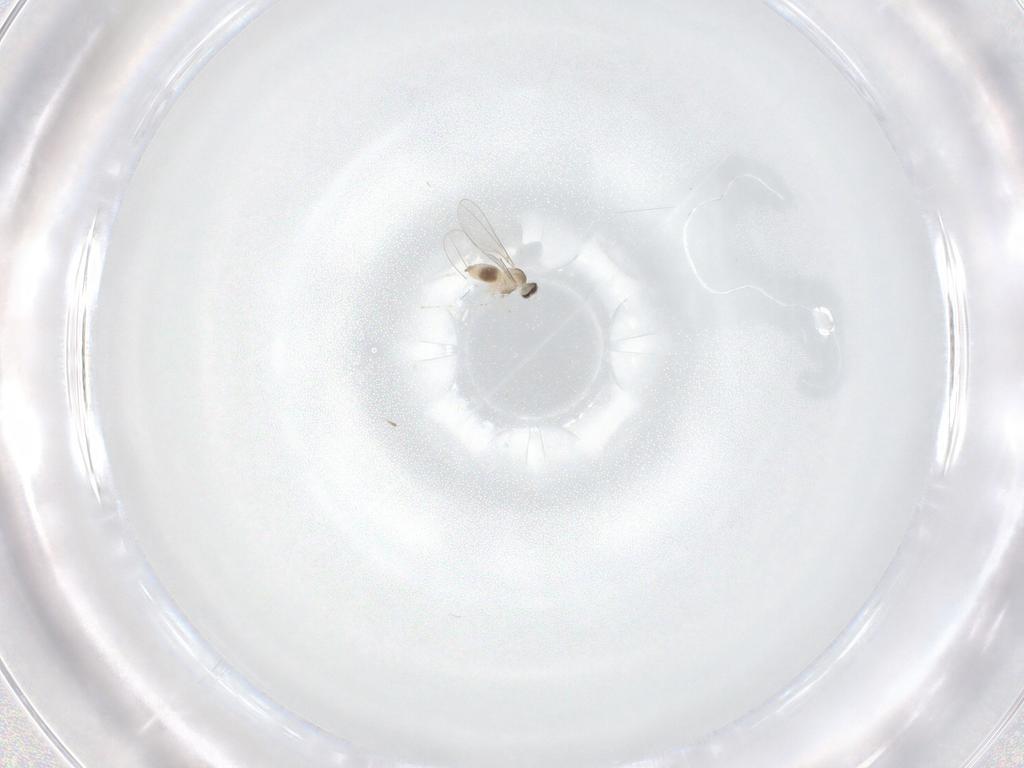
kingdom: Animalia
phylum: Arthropoda
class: Insecta
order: Diptera
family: Cecidomyiidae
